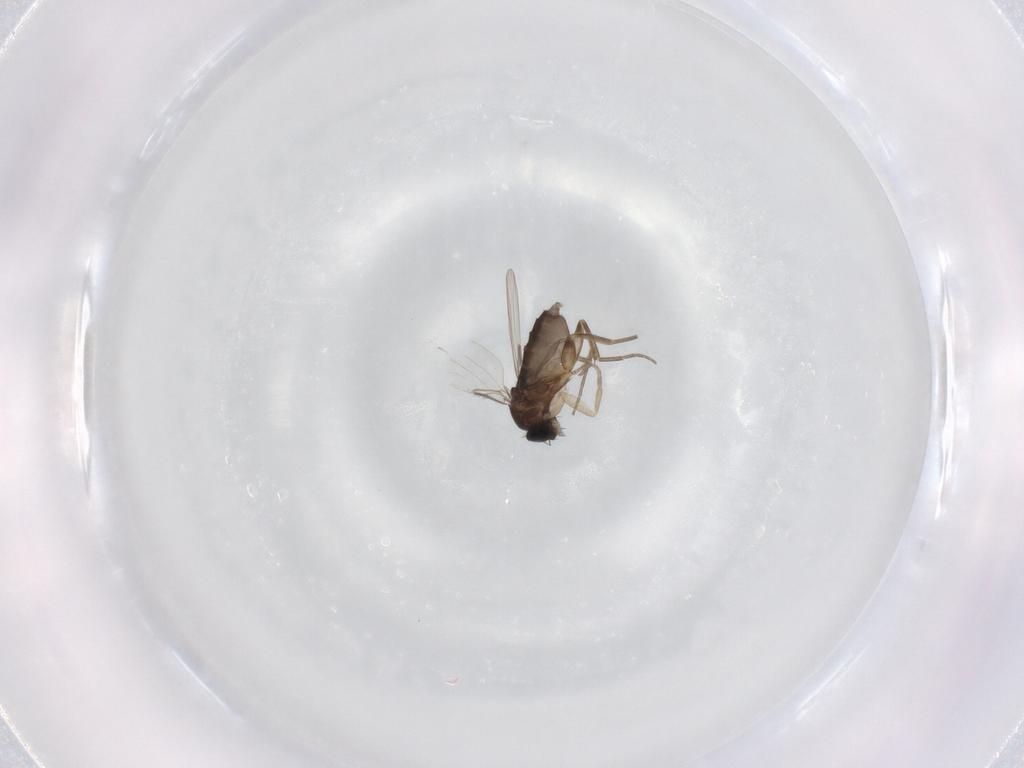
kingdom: Animalia
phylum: Arthropoda
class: Insecta
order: Diptera
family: Phoridae
